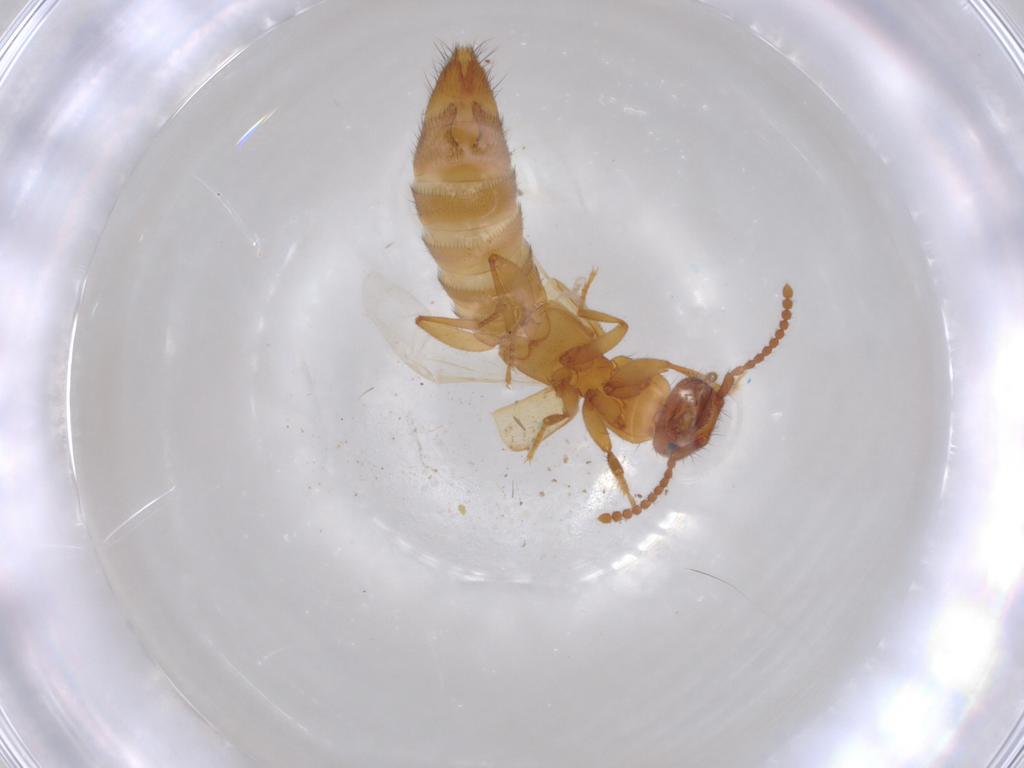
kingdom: Animalia
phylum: Arthropoda
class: Insecta
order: Coleoptera
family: Staphylinidae
